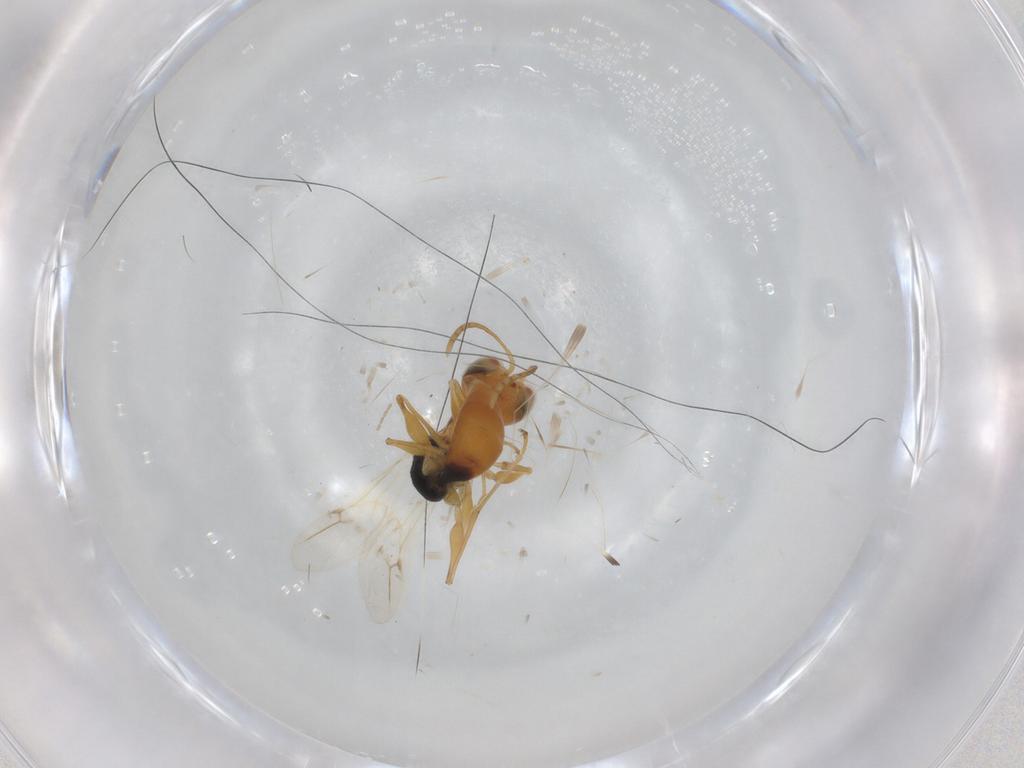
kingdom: Animalia
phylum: Arthropoda
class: Insecta
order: Hymenoptera
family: Dryinidae
